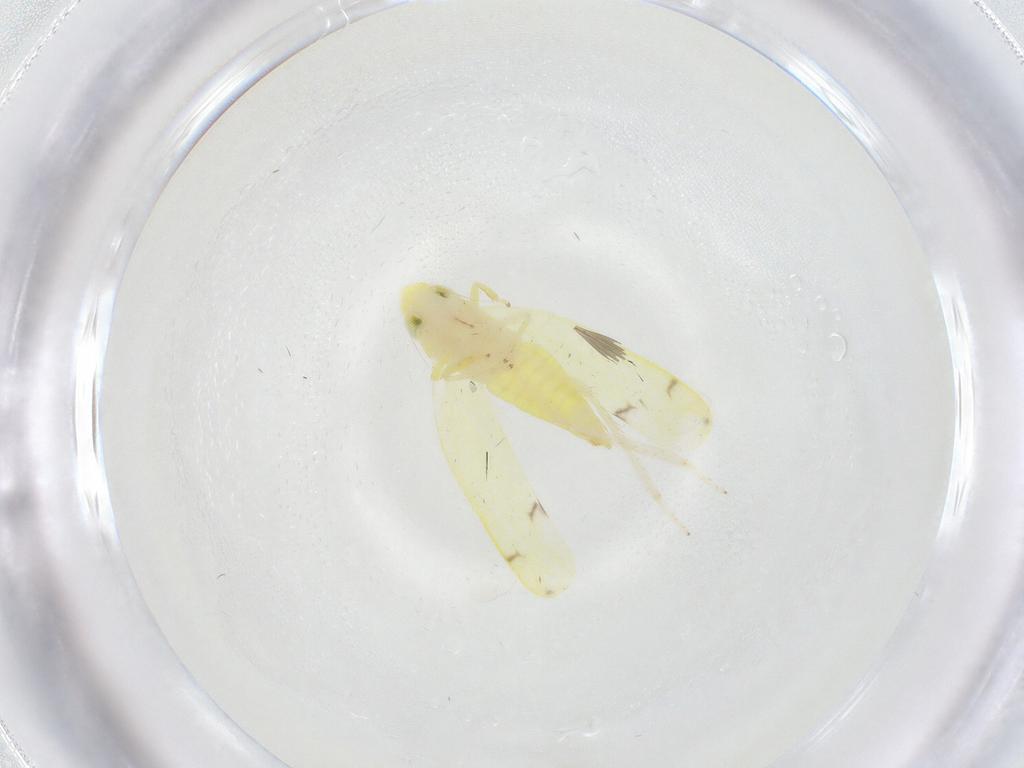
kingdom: Animalia
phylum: Arthropoda
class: Insecta
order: Hemiptera
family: Cicadellidae
